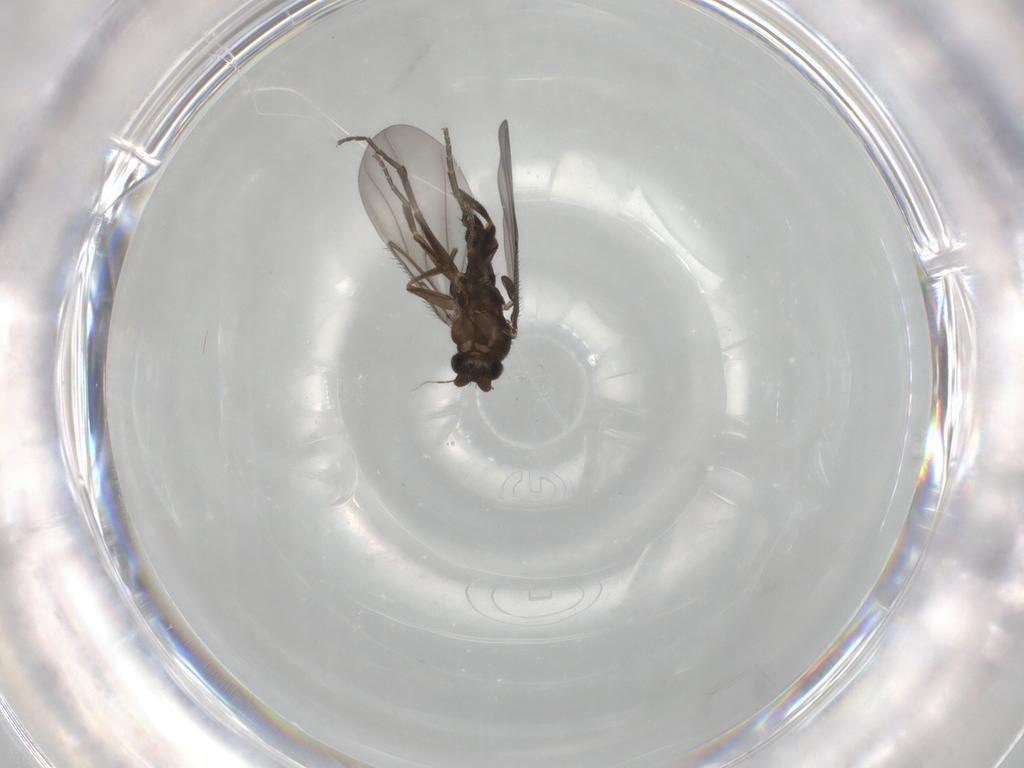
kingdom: Animalia
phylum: Arthropoda
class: Insecta
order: Diptera
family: Phoridae
